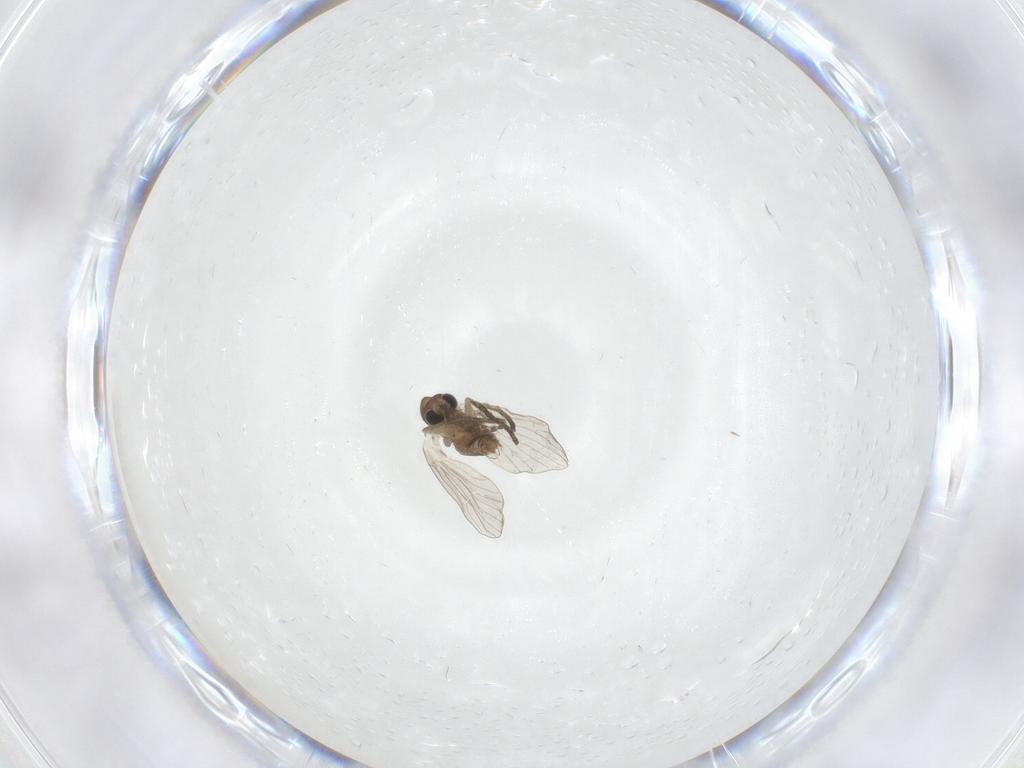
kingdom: Animalia
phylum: Arthropoda
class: Insecta
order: Diptera
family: Psychodidae
